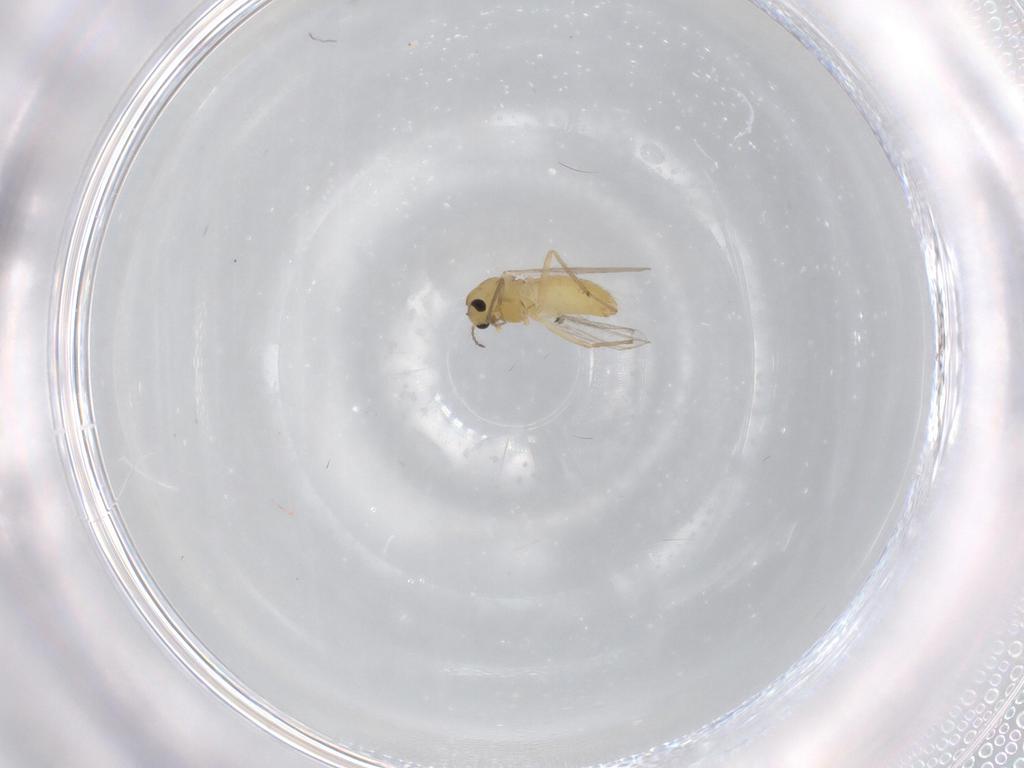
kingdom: Animalia
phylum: Arthropoda
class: Insecta
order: Diptera
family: Chironomidae
